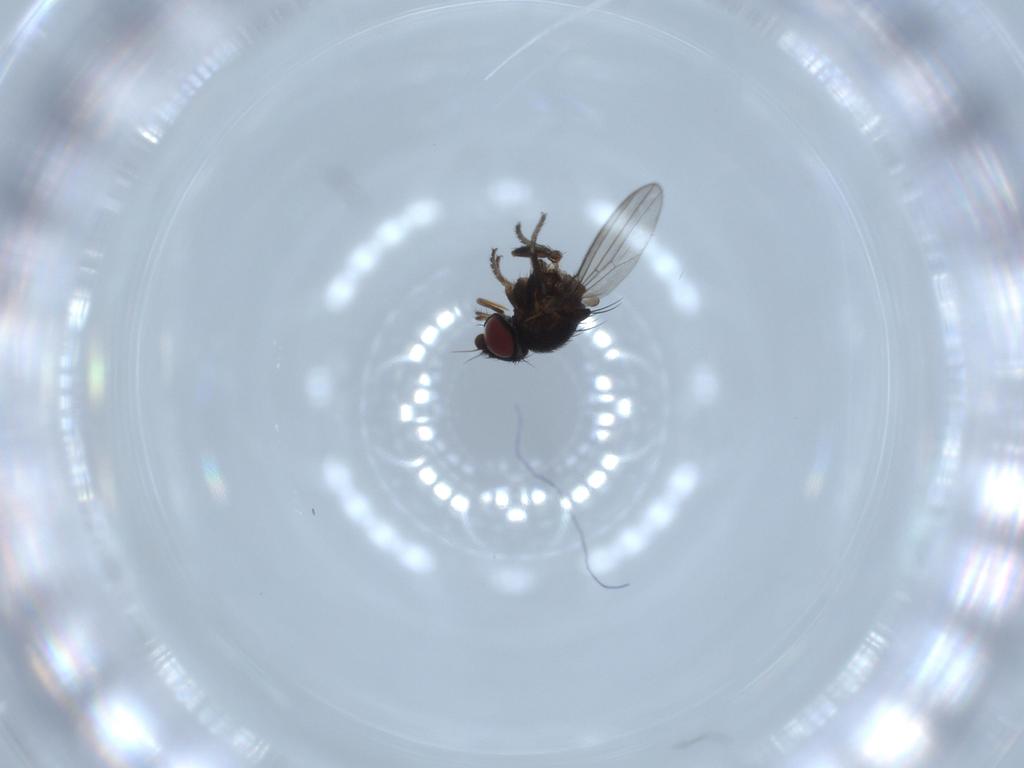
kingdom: Animalia
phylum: Arthropoda
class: Insecta
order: Diptera
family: Milichiidae
